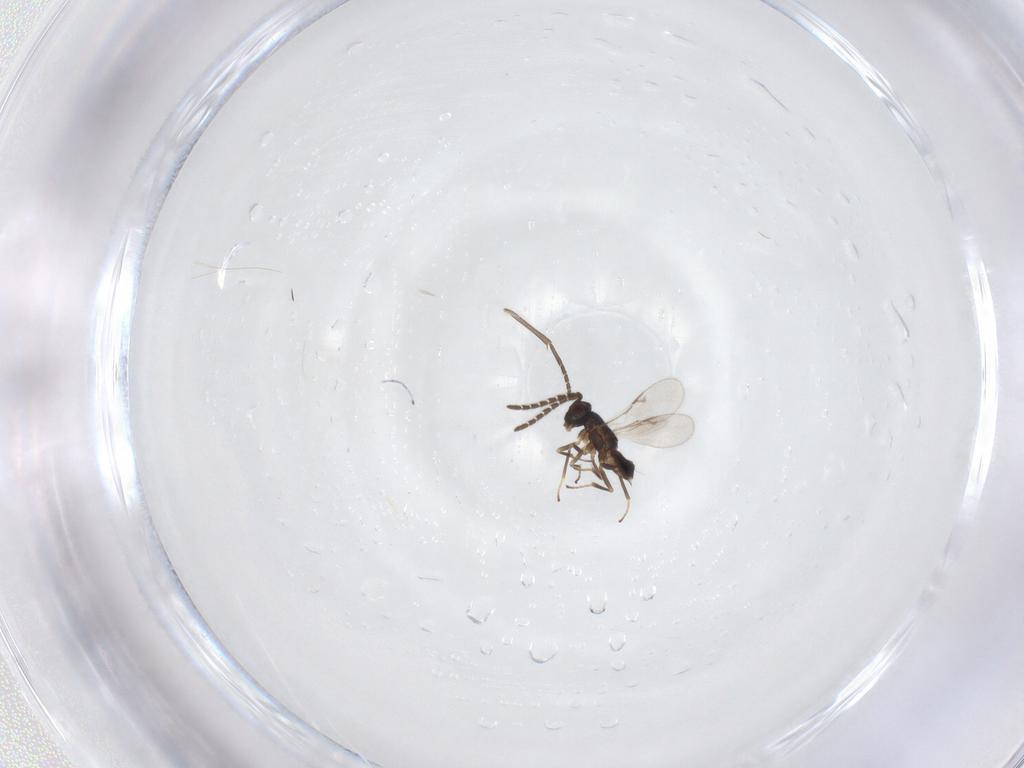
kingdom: Animalia
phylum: Arthropoda
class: Insecta
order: Hymenoptera
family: Encyrtidae
